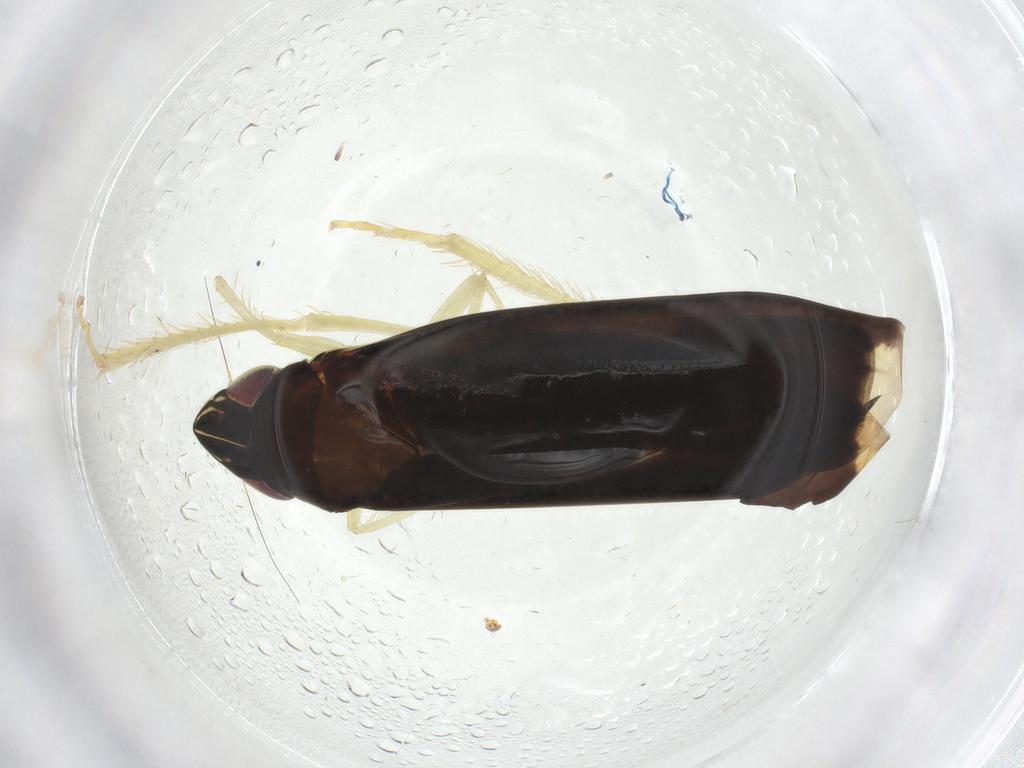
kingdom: Animalia
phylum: Arthropoda
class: Insecta
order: Hemiptera
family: Cicadellidae
